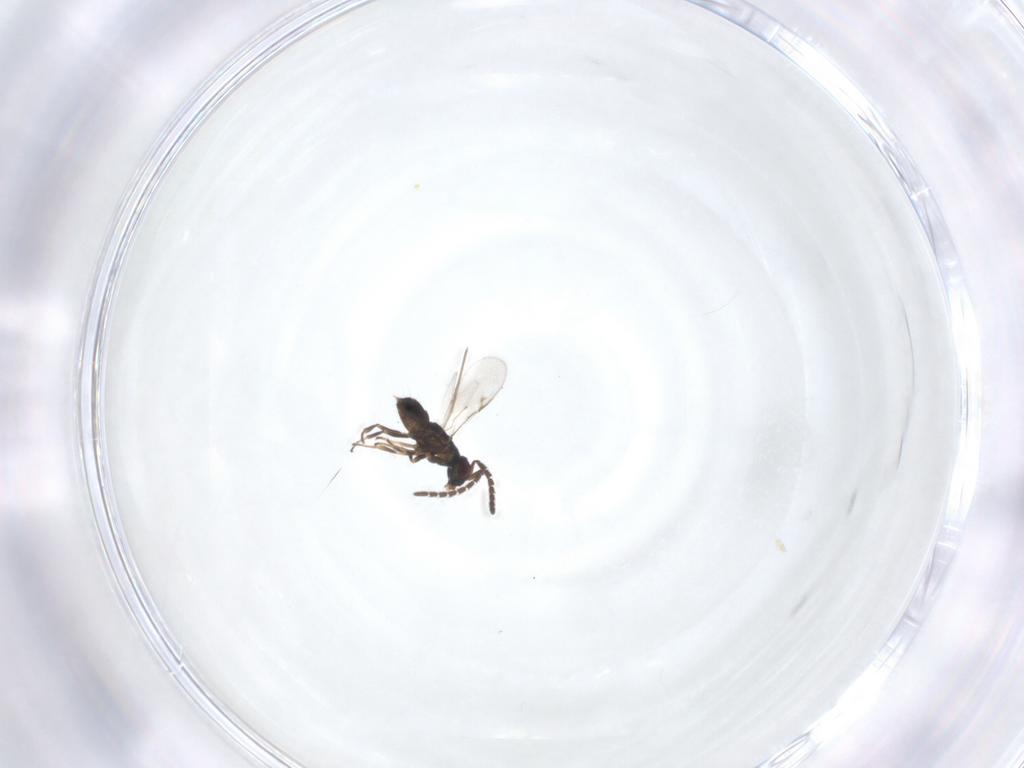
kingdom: Animalia
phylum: Arthropoda
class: Insecta
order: Hymenoptera
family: Encyrtidae
